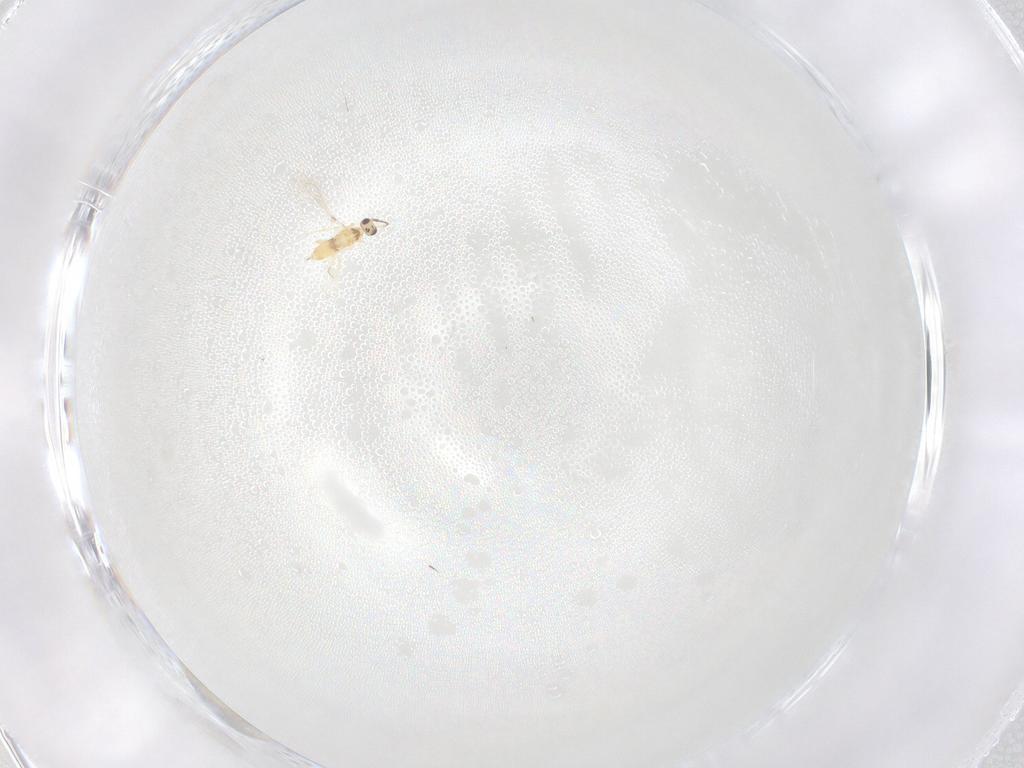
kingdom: Animalia
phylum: Arthropoda
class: Insecta
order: Hymenoptera
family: Mymaridae
